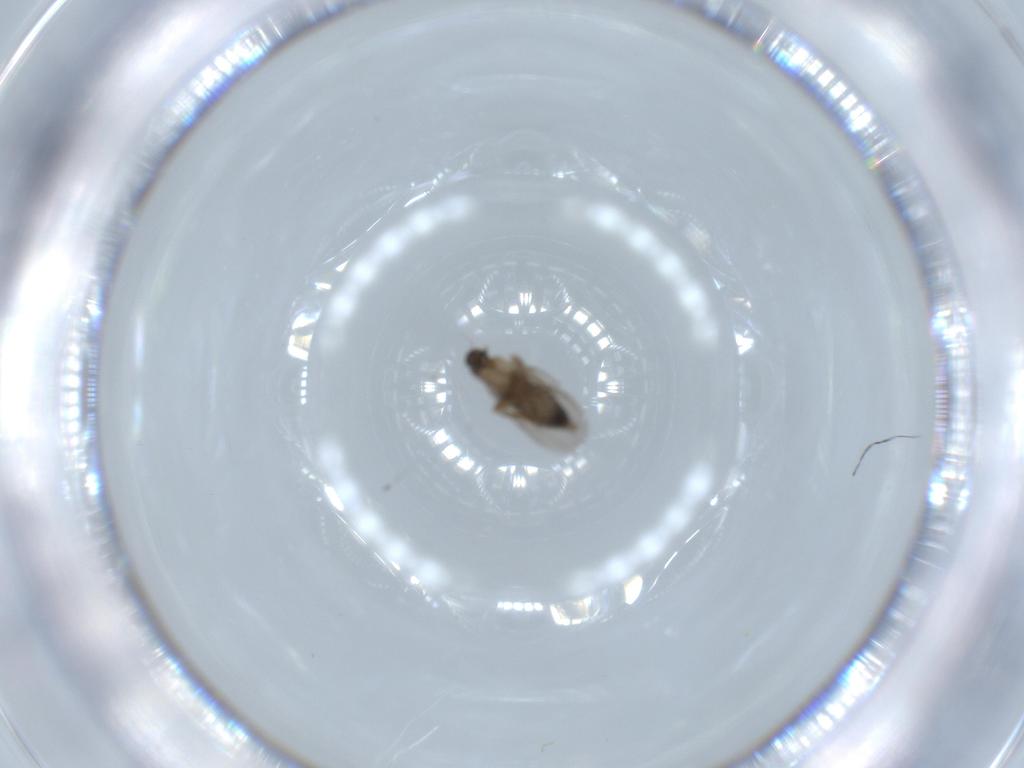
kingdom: Animalia
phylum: Arthropoda
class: Insecta
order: Diptera
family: Phoridae
